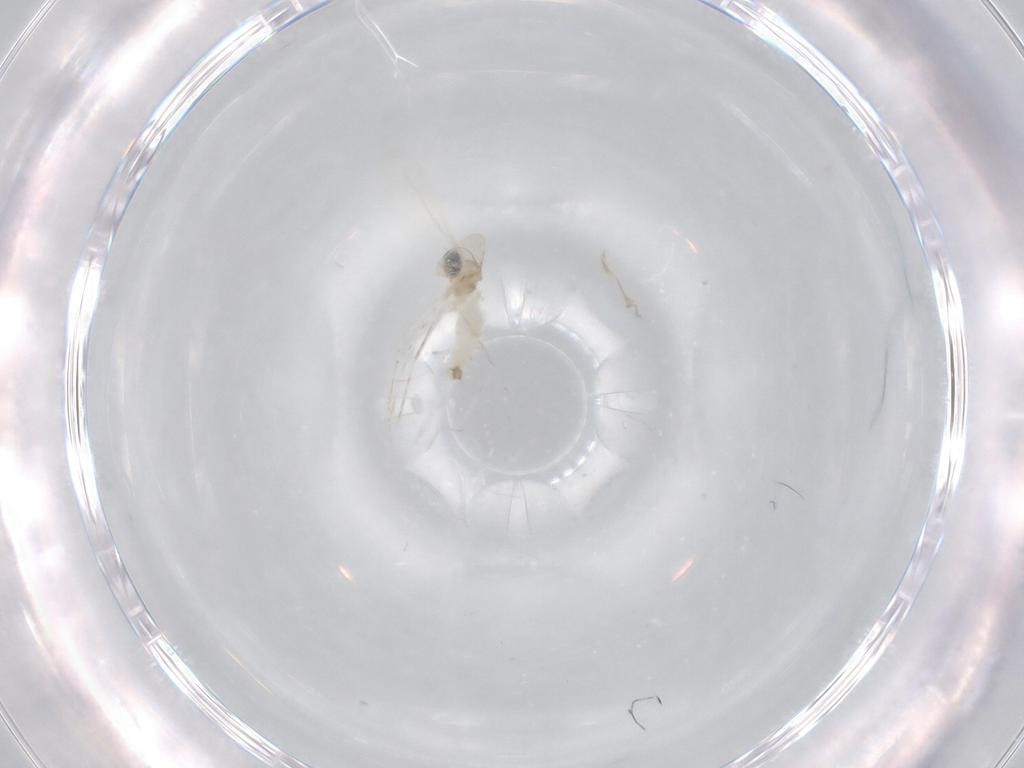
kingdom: Animalia
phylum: Arthropoda
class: Insecta
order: Diptera
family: Cecidomyiidae
